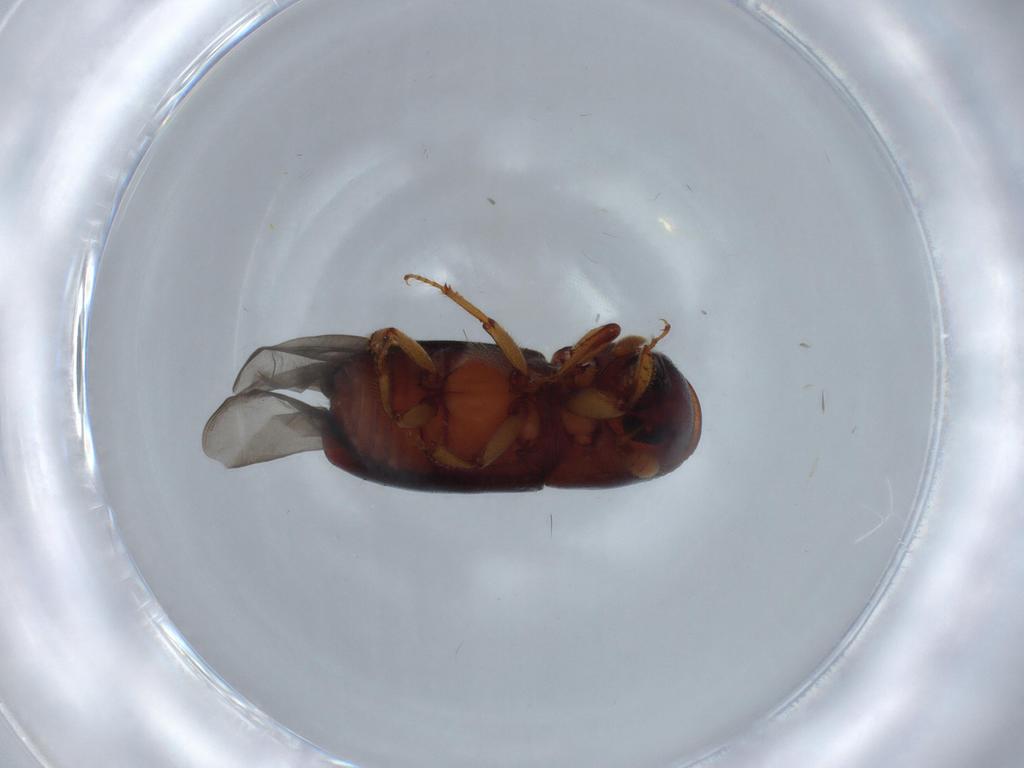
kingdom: Animalia
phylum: Arthropoda
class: Insecta
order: Coleoptera
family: Curculionidae
